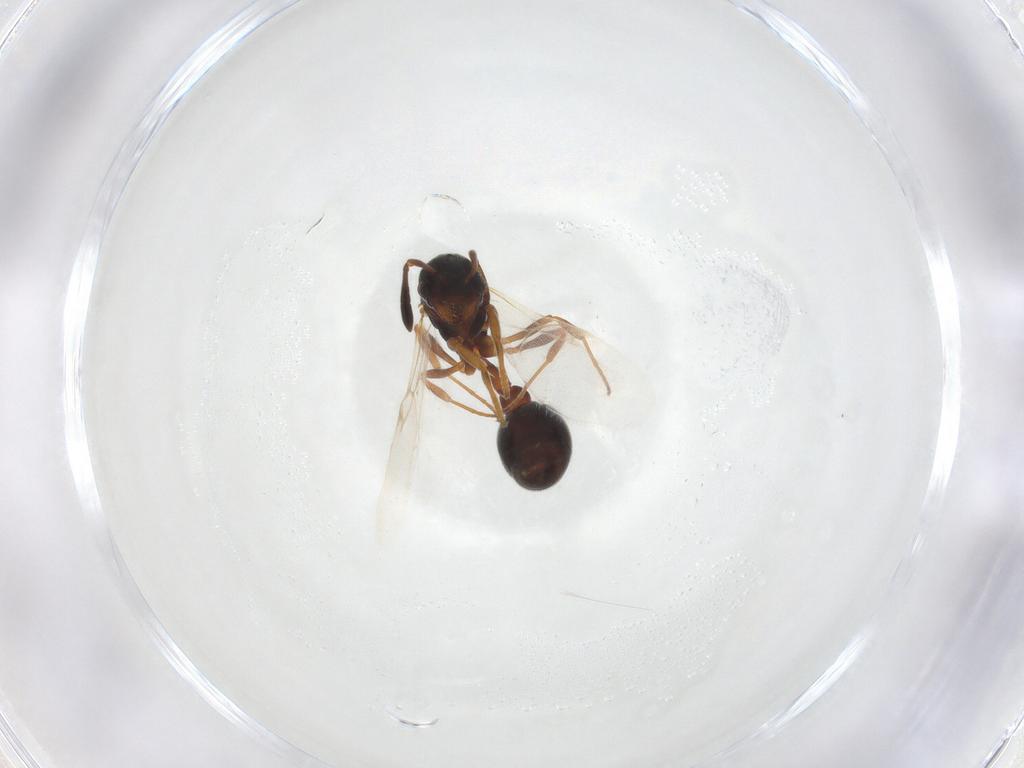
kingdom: Animalia
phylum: Arthropoda
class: Insecta
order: Hymenoptera
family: Formicidae
